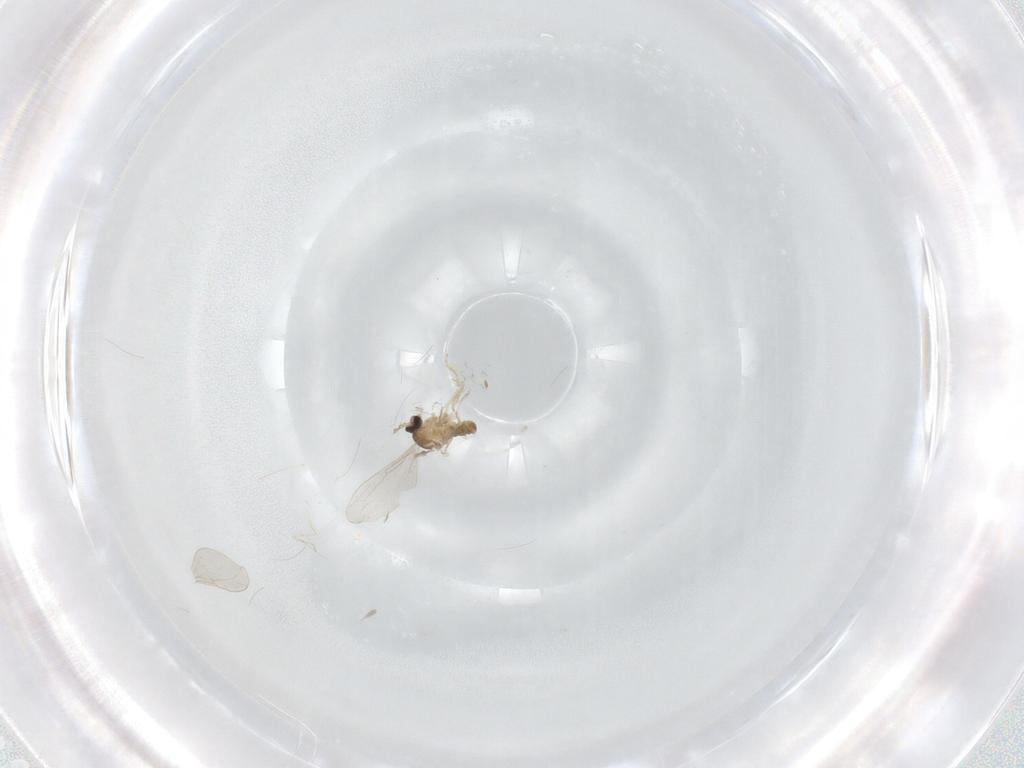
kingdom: Animalia
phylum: Arthropoda
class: Insecta
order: Diptera
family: Cecidomyiidae
